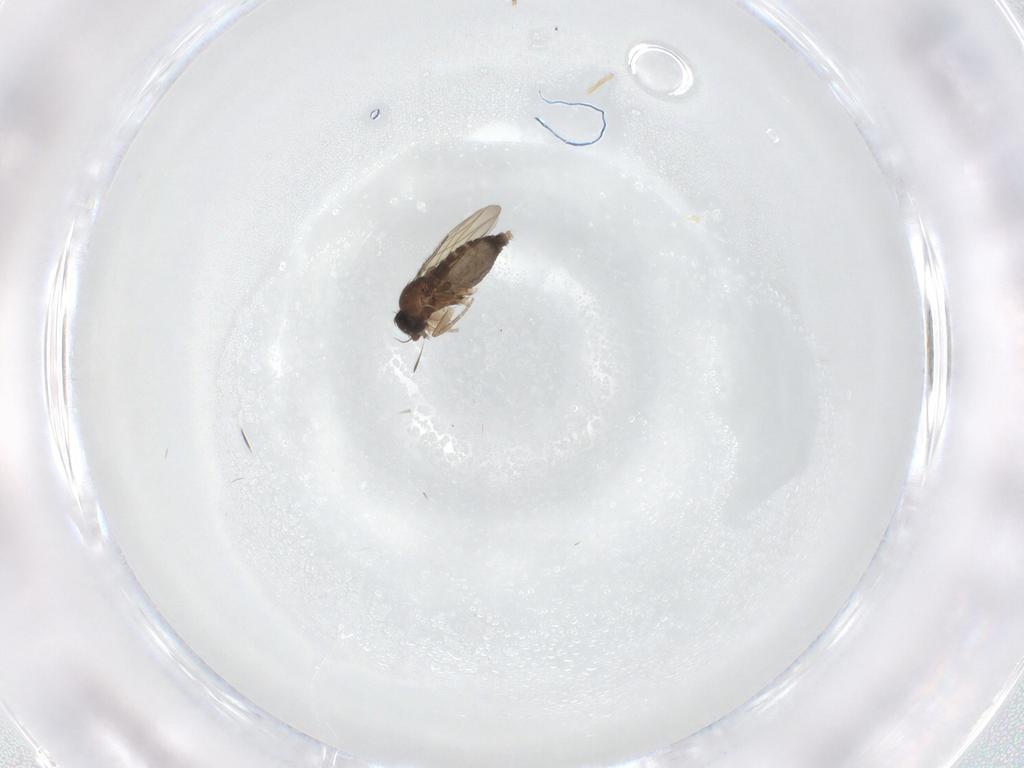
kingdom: Animalia
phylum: Arthropoda
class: Insecta
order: Diptera
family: Phoridae
